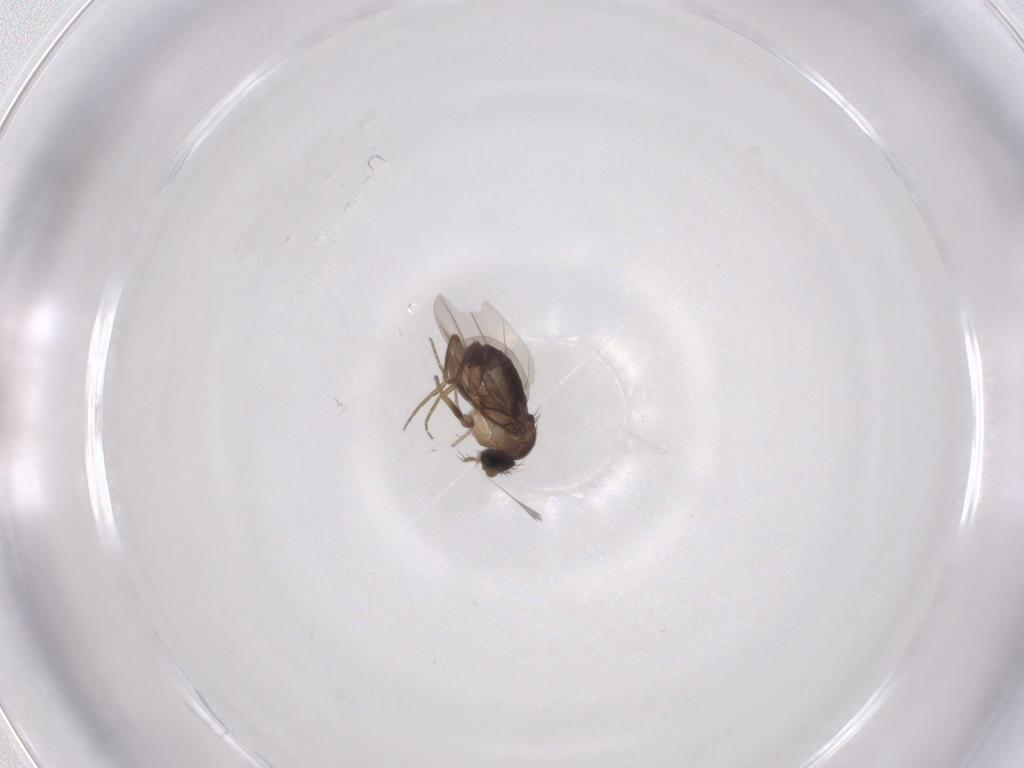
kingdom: Animalia
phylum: Arthropoda
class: Insecta
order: Diptera
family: Phoridae
